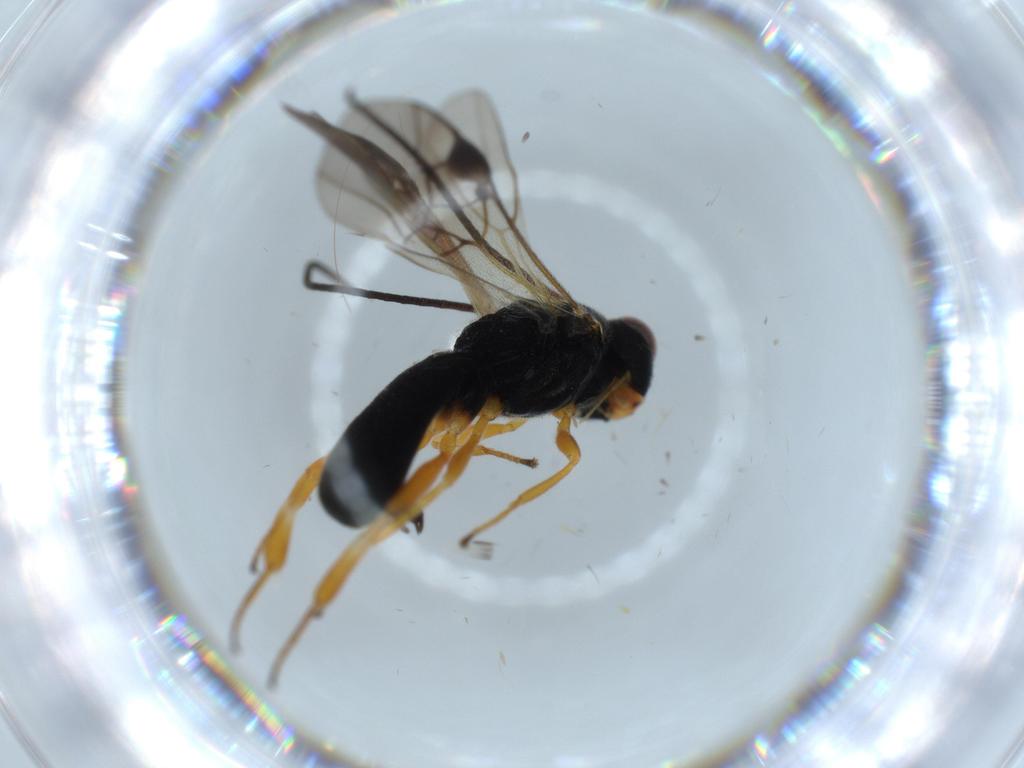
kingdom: Animalia
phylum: Arthropoda
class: Insecta
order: Hymenoptera
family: Braconidae
